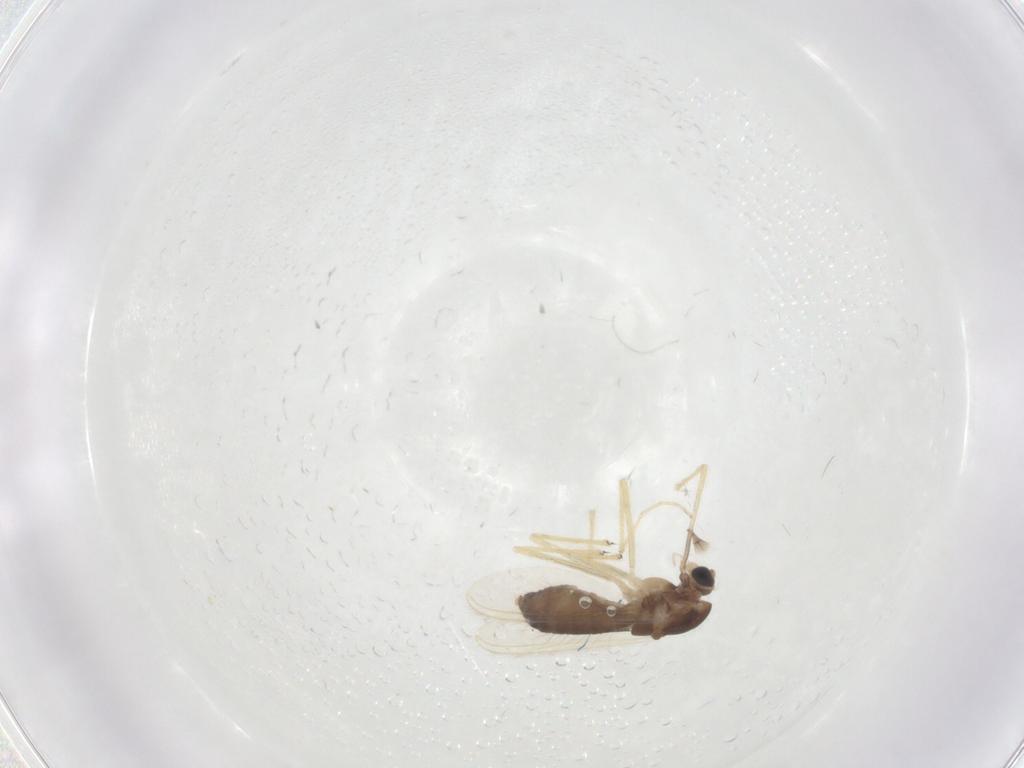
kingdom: Animalia
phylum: Arthropoda
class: Insecta
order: Diptera
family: Chironomidae
